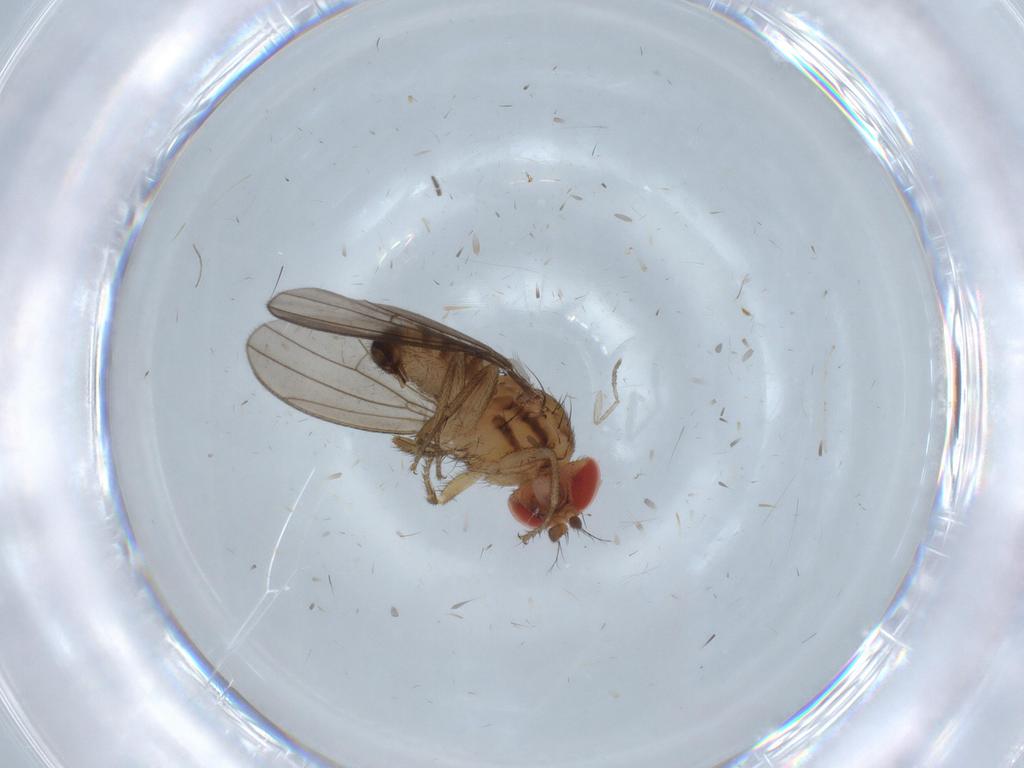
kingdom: Animalia
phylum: Arthropoda
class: Insecta
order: Diptera
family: Drosophilidae
